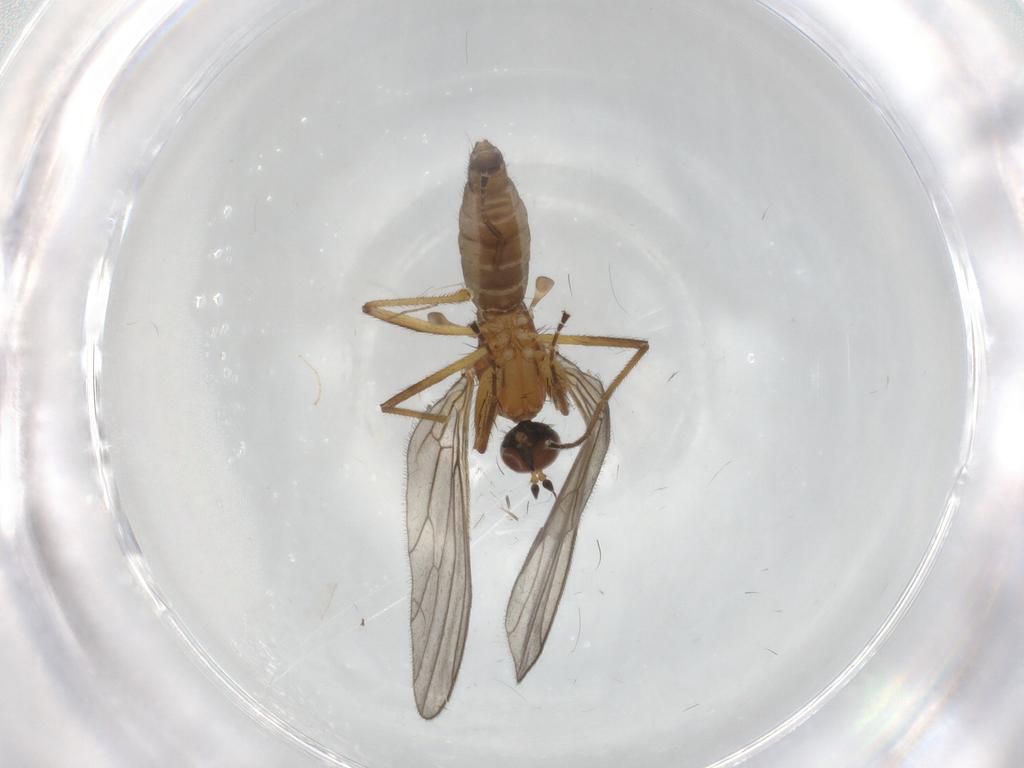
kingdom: Animalia
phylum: Arthropoda
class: Insecta
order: Diptera
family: Empididae
